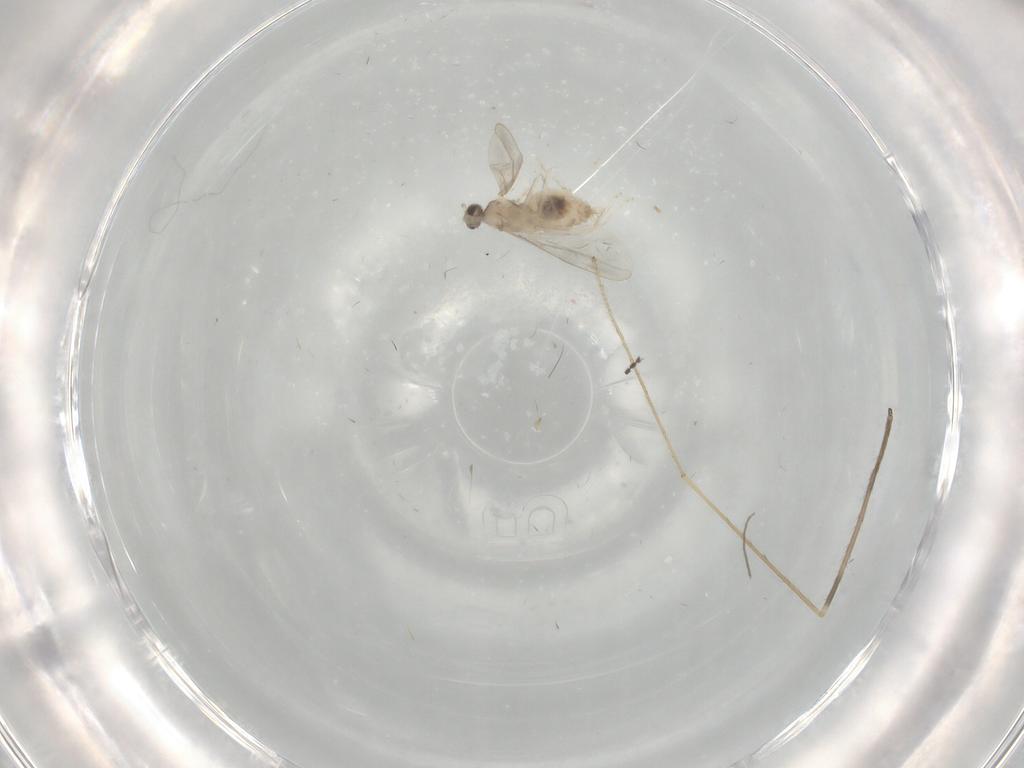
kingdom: Animalia
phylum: Arthropoda
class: Insecta
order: Diptera
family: Cecidomyiidae
